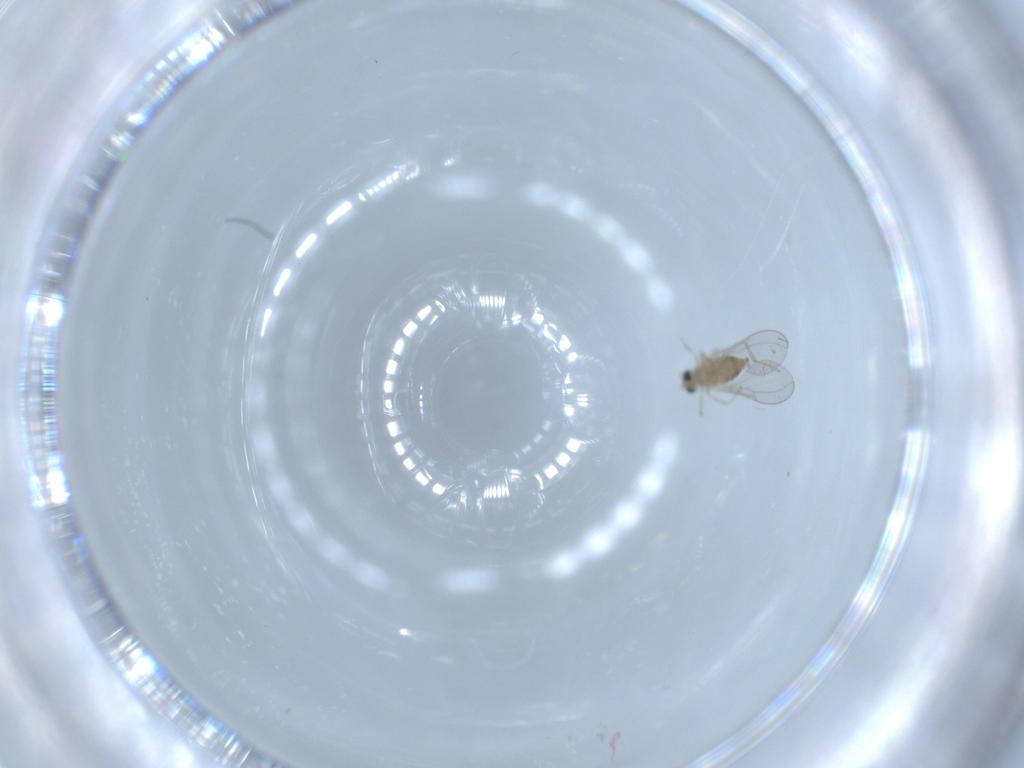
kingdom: Animalia
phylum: Arthropoda
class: Insecta
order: Diptera
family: Cecidomyiidae
